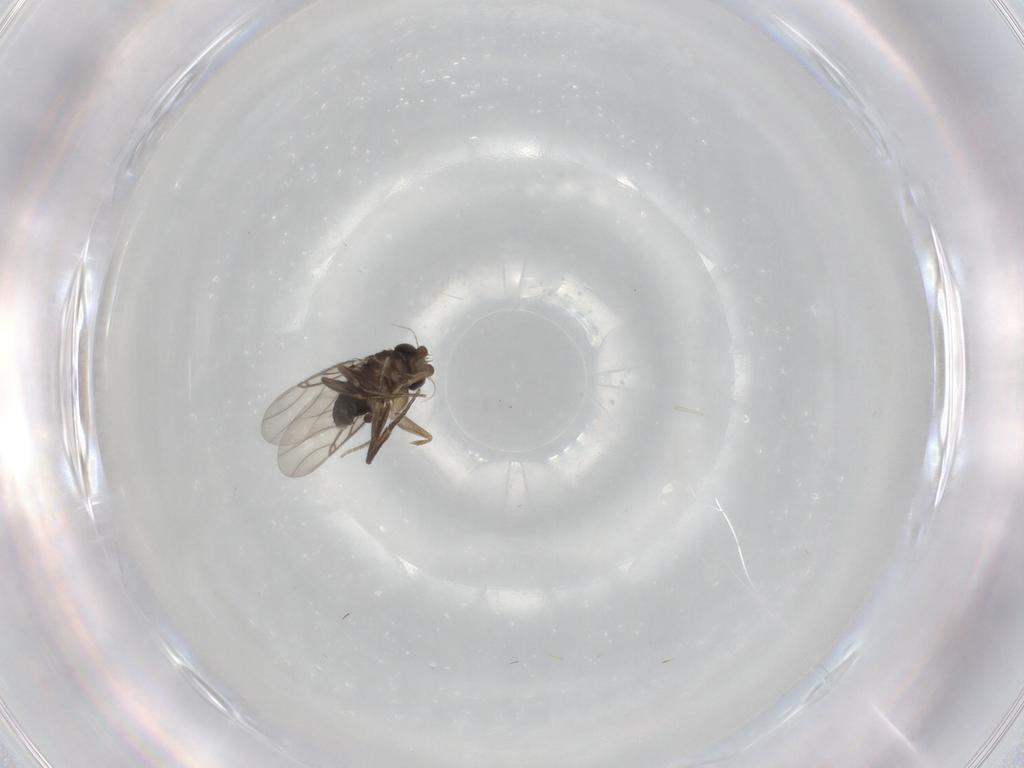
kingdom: Animalia
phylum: Arthropoda
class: Insecta
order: Diptera
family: Phoridae
